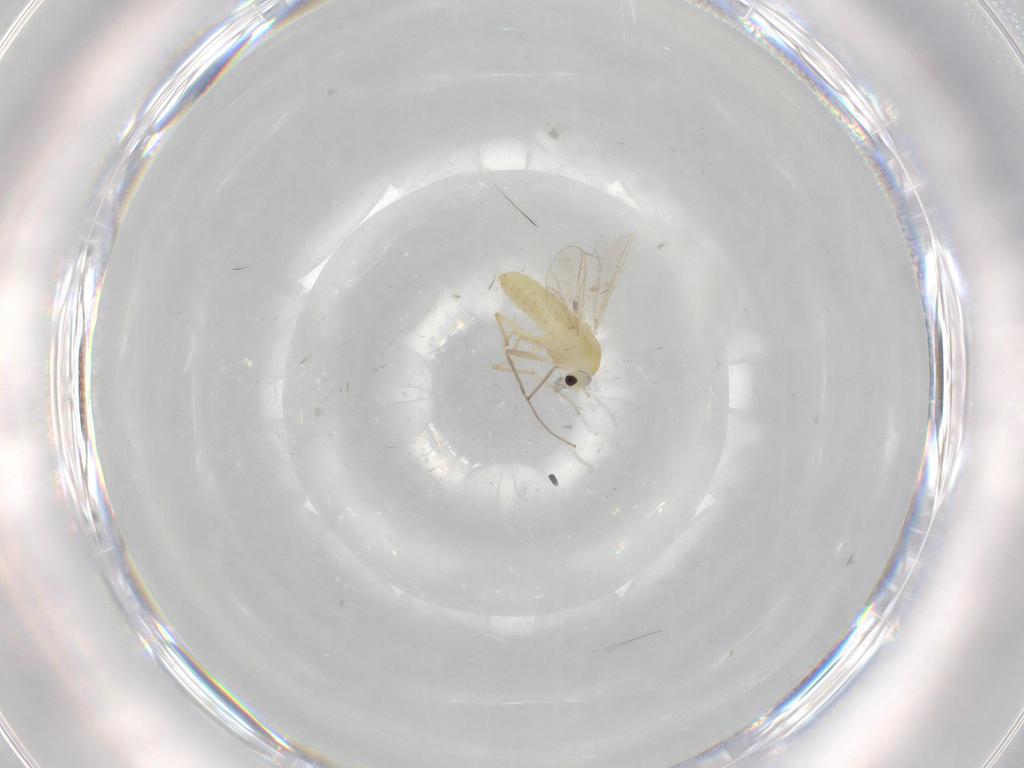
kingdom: Animalia
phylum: Arthropoda
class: Insecta
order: Diptera
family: Chironomidae
